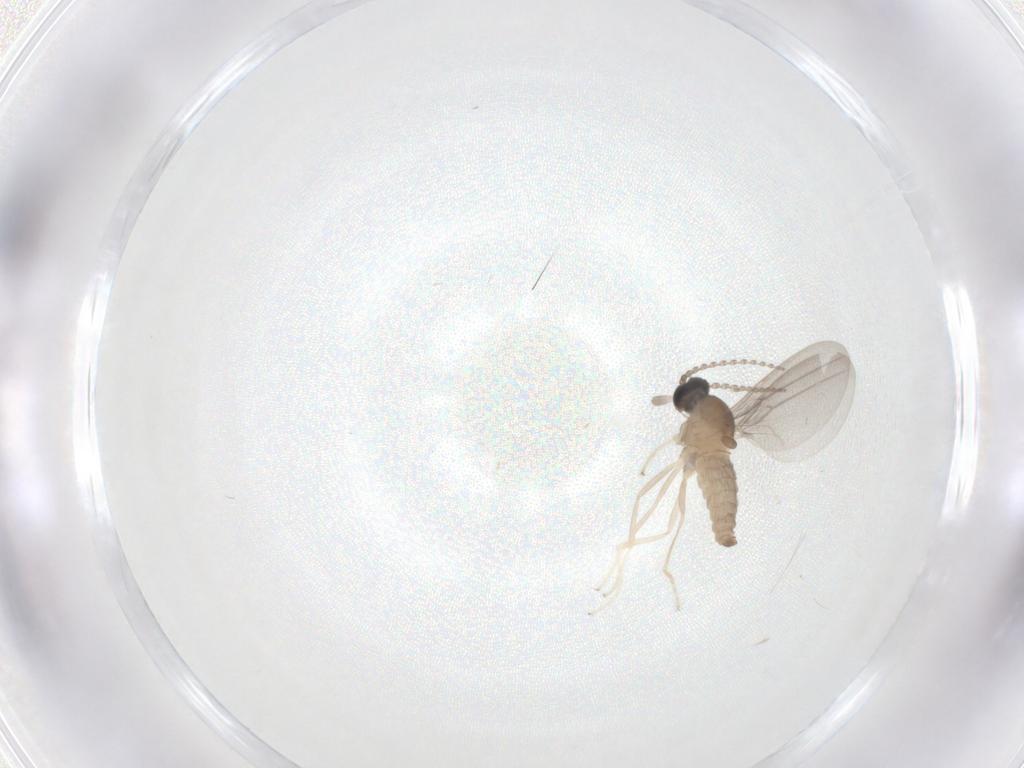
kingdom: Animalia
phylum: Arthropoda
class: Insecta
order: Diptera
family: Cecidomyiidae
